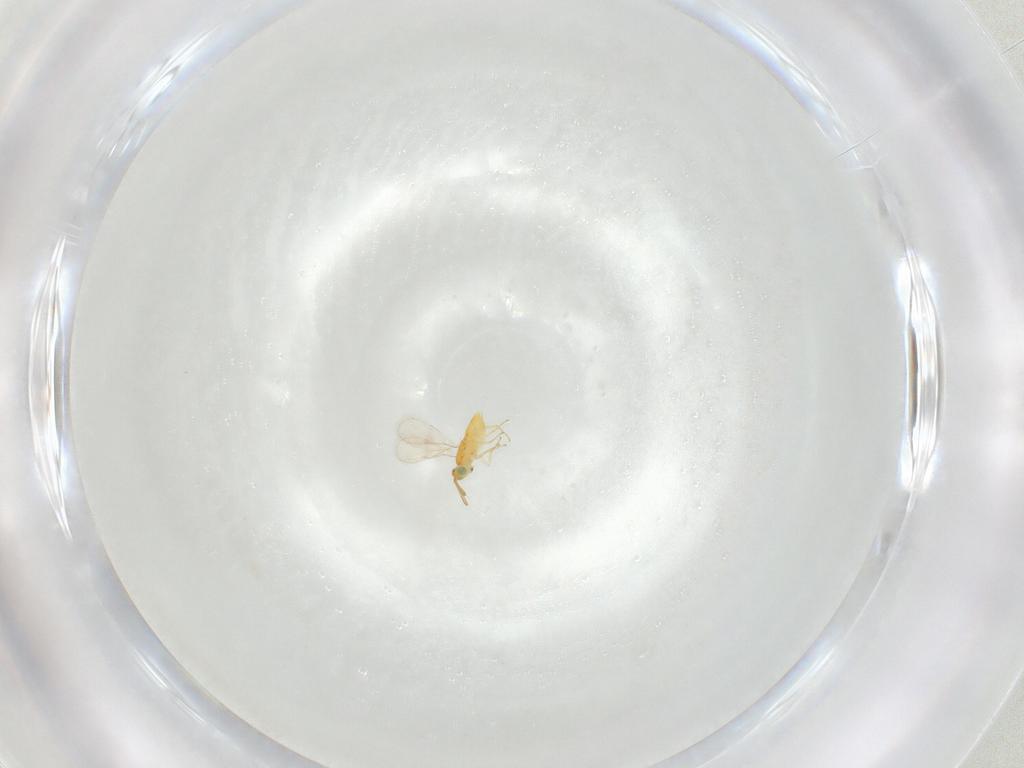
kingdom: Animalia
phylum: Arthropoda
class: Insecta
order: Hymenoptera
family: Aphelinidae
